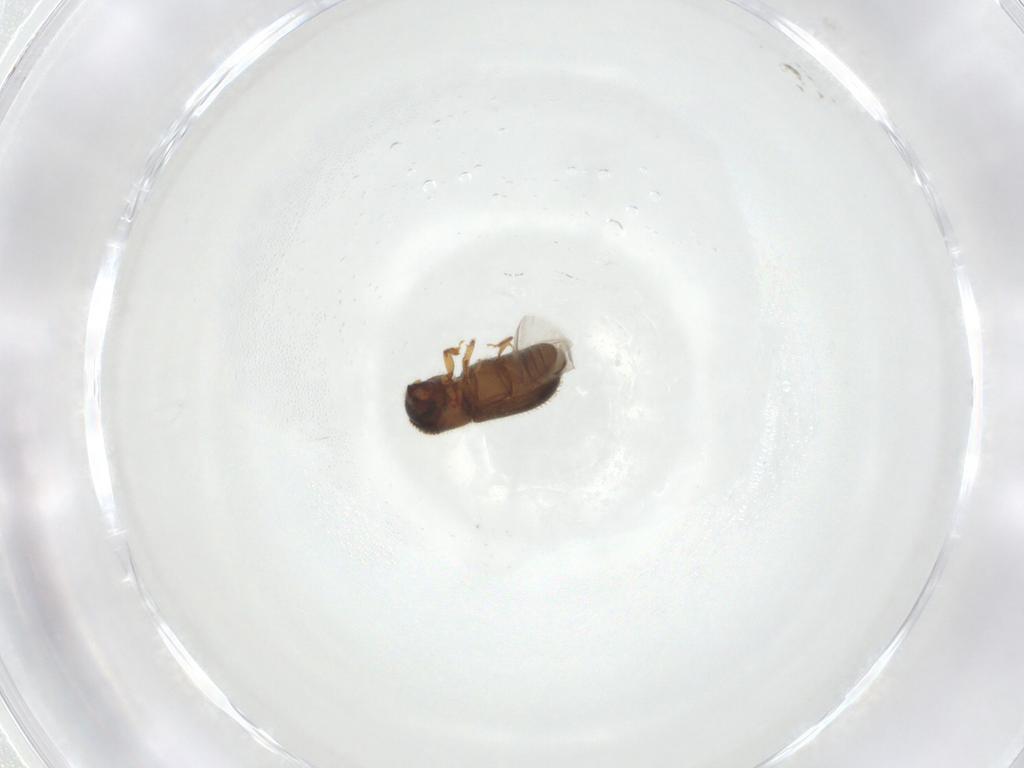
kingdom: Animalia
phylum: Arthropoda
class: Insecta
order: Coleoptera
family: Curculionidae
